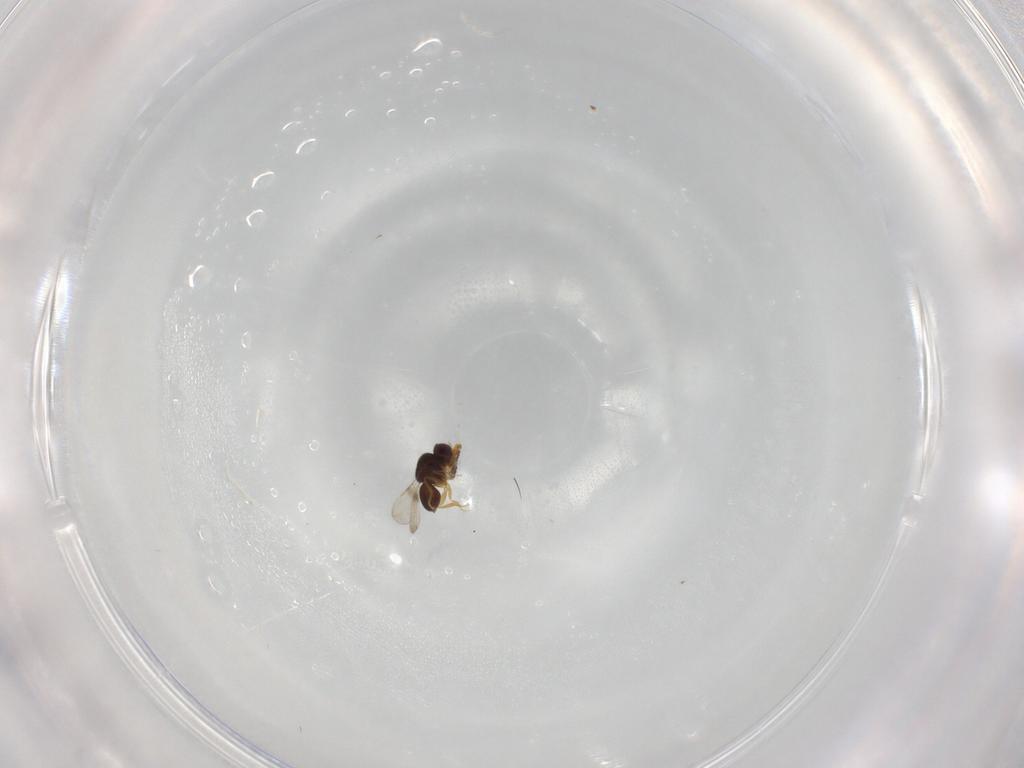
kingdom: Animalia
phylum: Arthropoda
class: Insecta
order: Hymenoptera
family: Ceraphronidae
